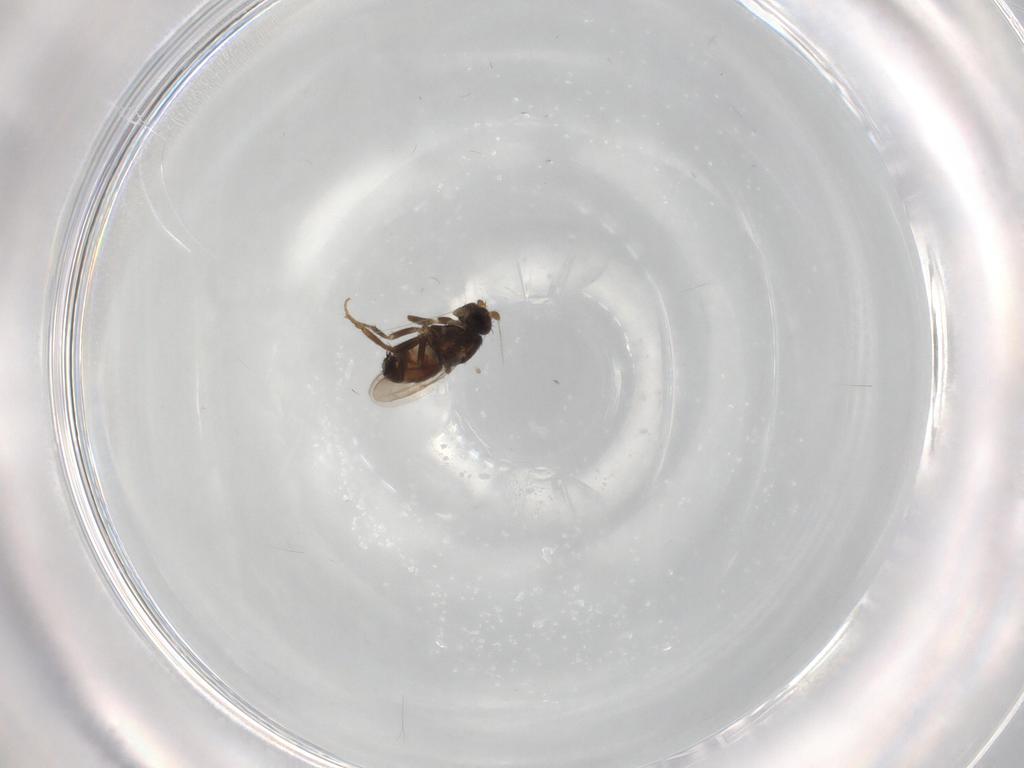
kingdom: Animalia
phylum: Arthropoda
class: Insecta
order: Diptera
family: Sphaeroceridae
